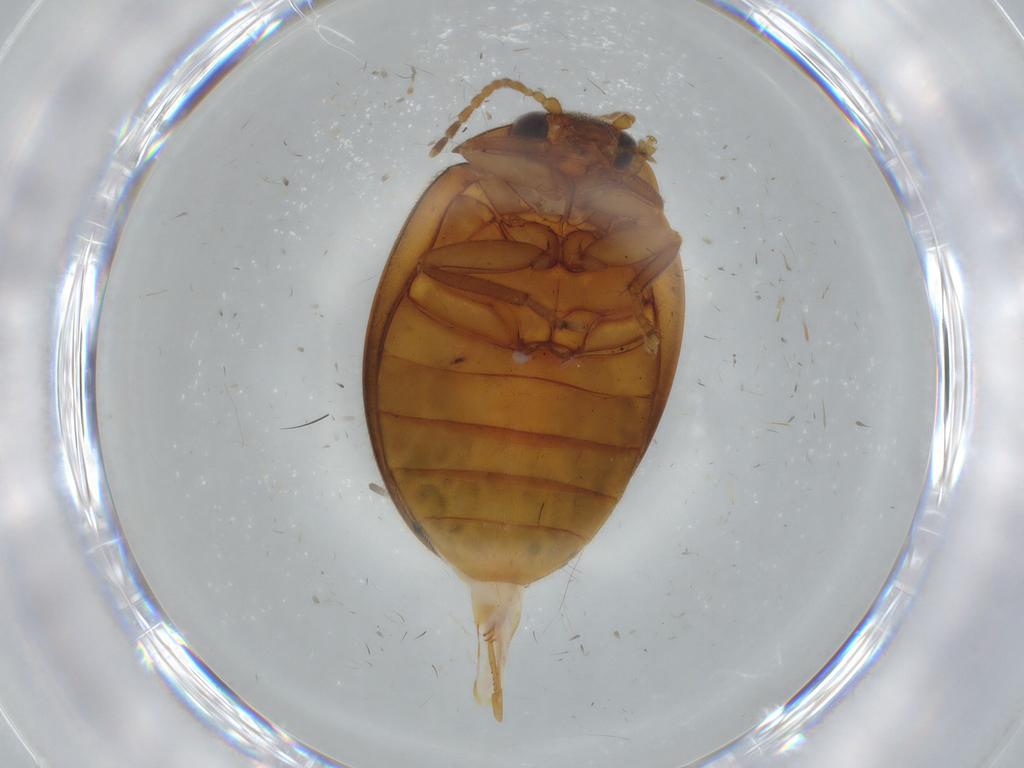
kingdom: Animalia
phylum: Arthropoda
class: Insecta
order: Coleoptera
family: Scirtidae
